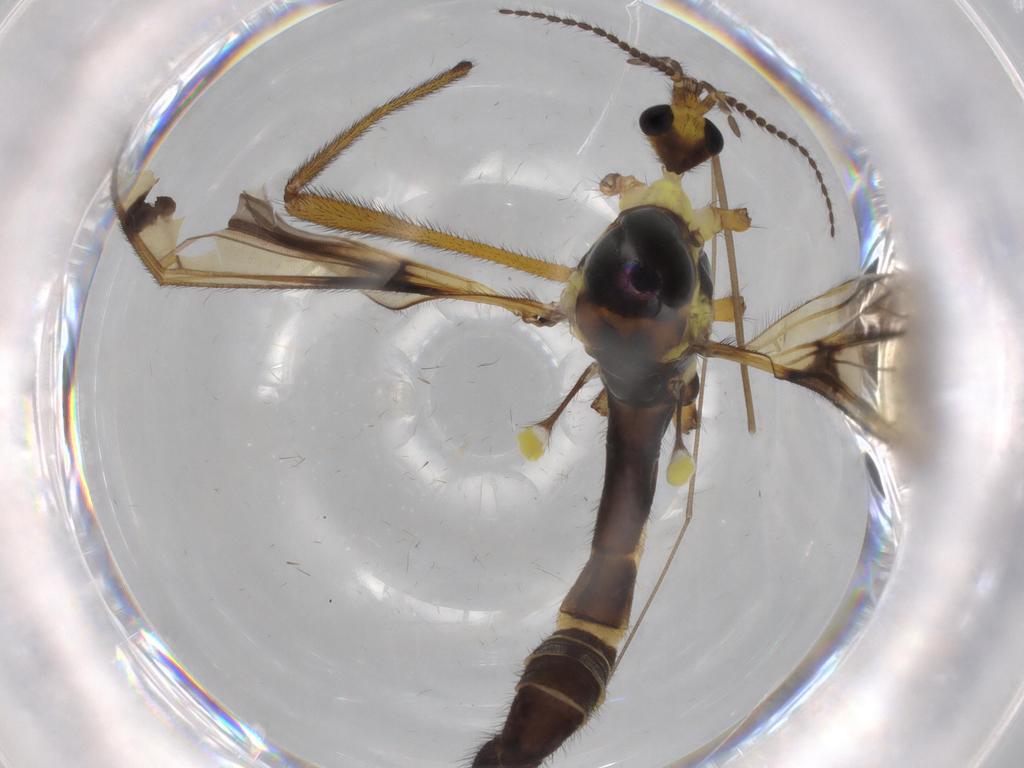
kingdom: Animalia
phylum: Arthropoda
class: Insecta
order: Diptera
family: Limoniidae
